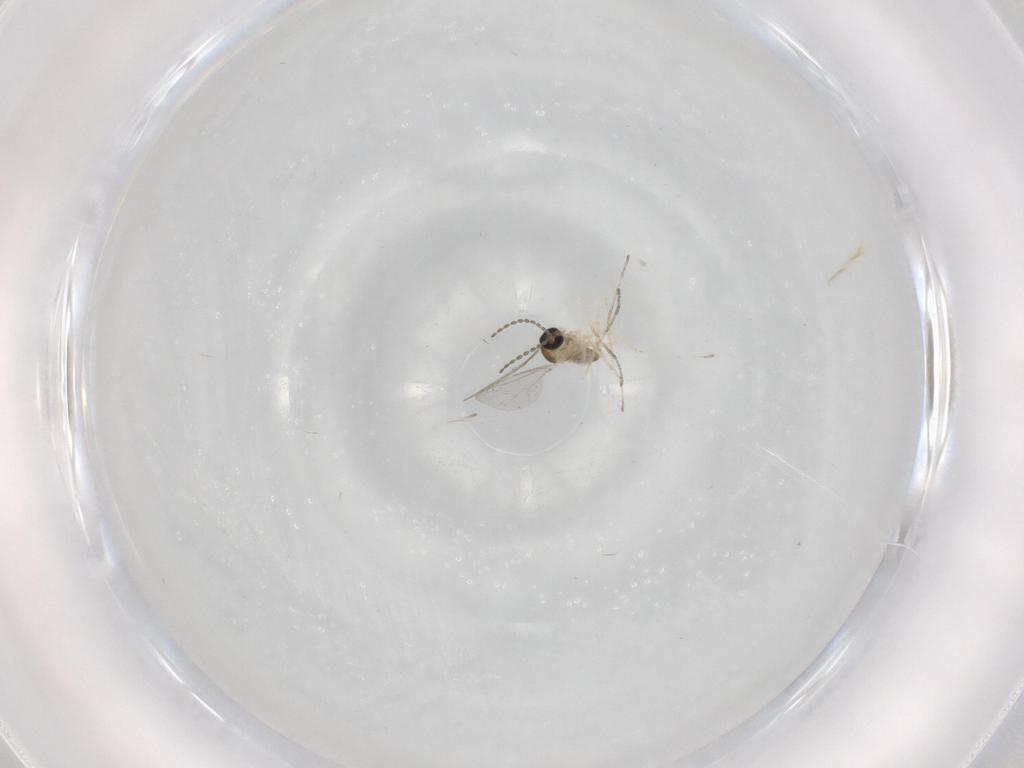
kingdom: Animalia
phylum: Arthropoda
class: Insecta
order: Diptera
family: Cecidomyiidae
